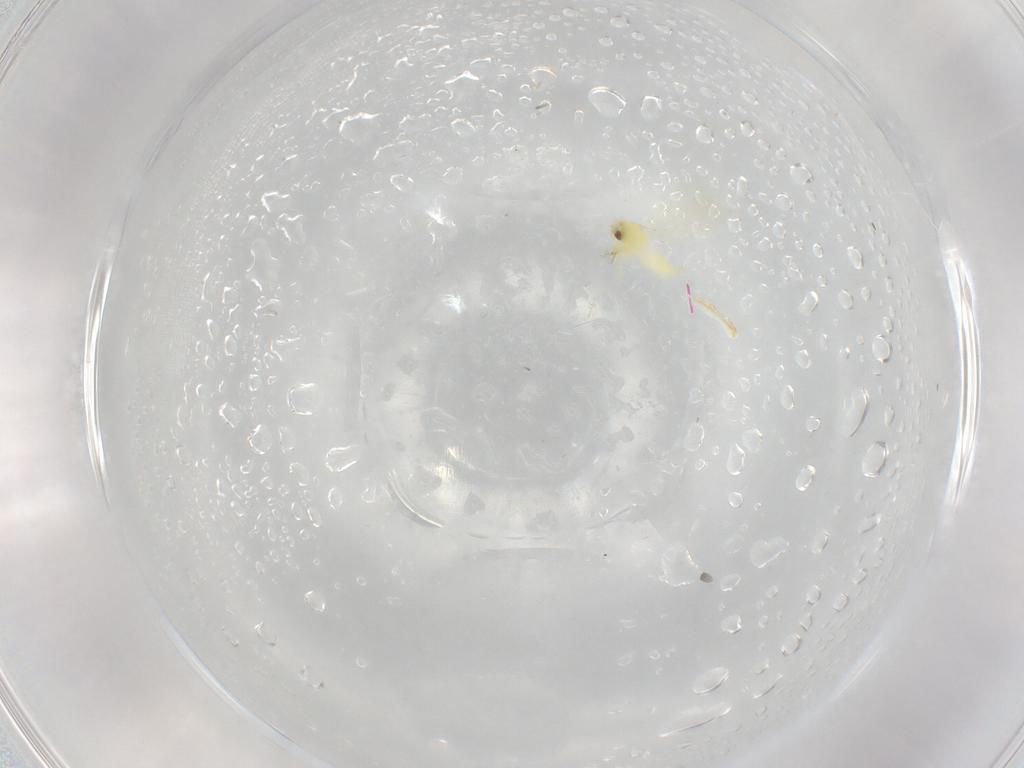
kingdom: Animalia
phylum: Arthropoda
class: Insecta
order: Hemiptera
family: Aleyrodidae
